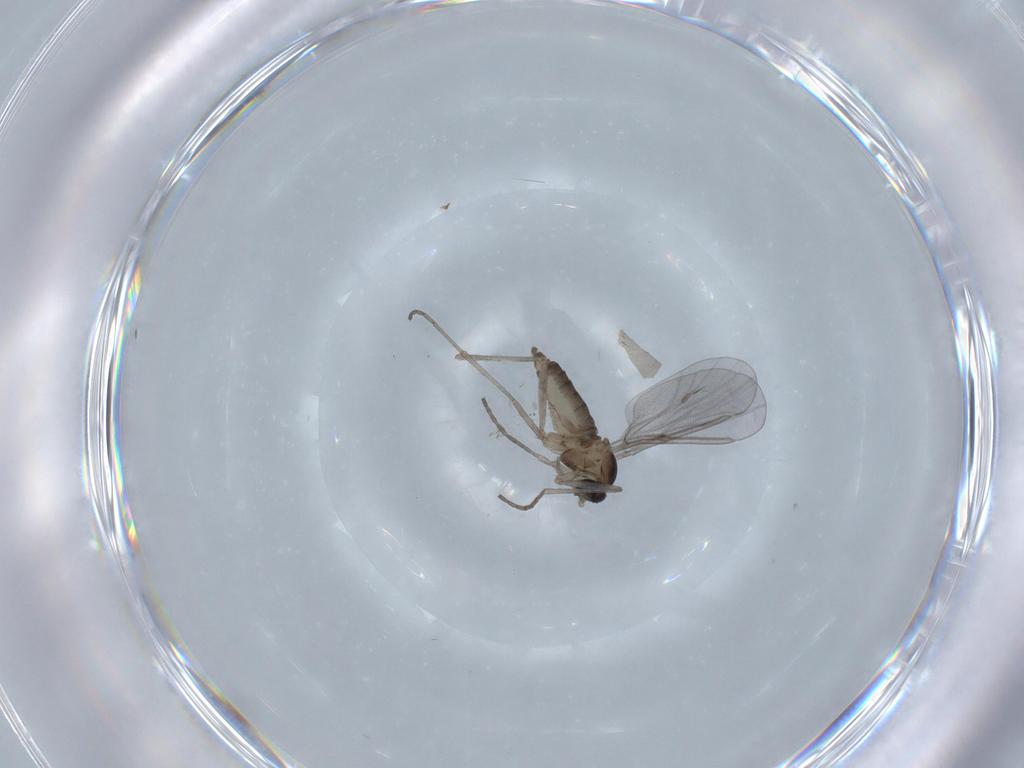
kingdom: Animalia
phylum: Arthropoda
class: Insecta
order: Diptera
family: Cecidomyiidae
